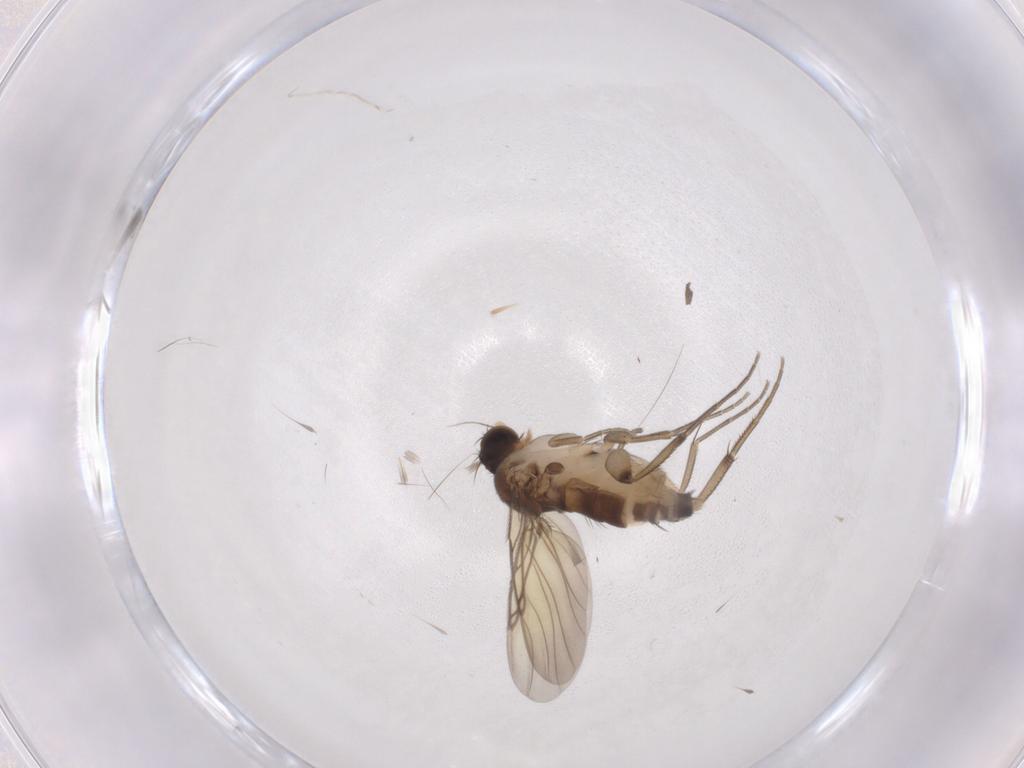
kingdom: Animalia
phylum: Arthropoda
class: Insecta
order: Diptera
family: Phoridae
